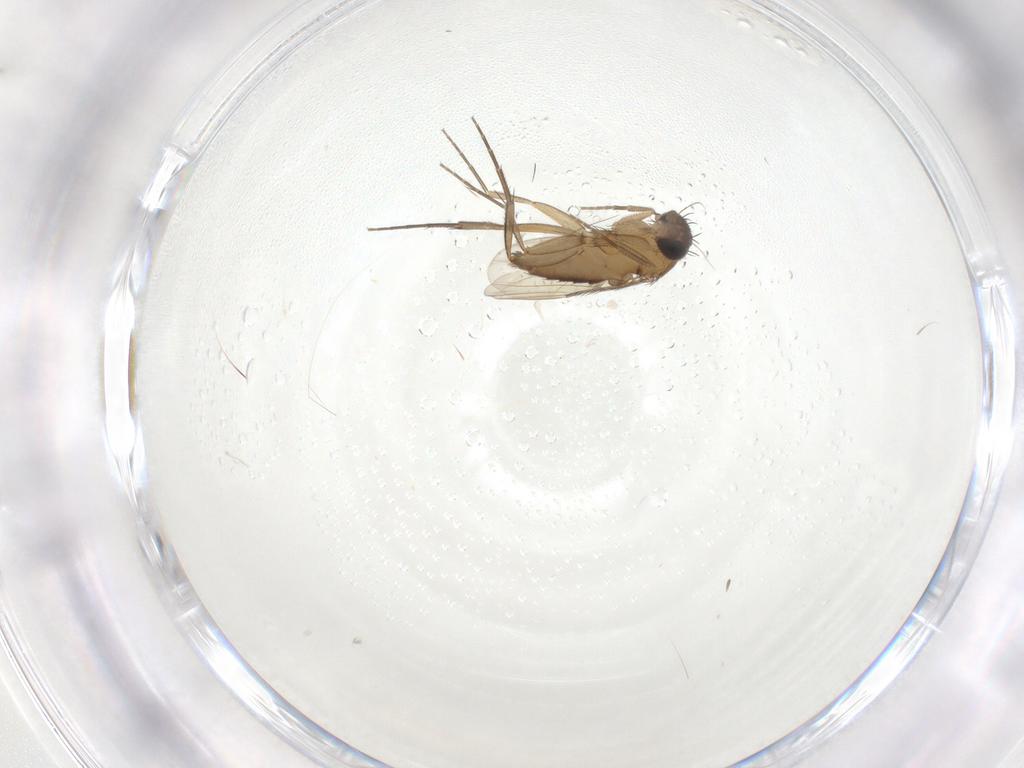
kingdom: Animalia
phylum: Arthropoda
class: Insecta
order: Diptera
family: Phoridae
